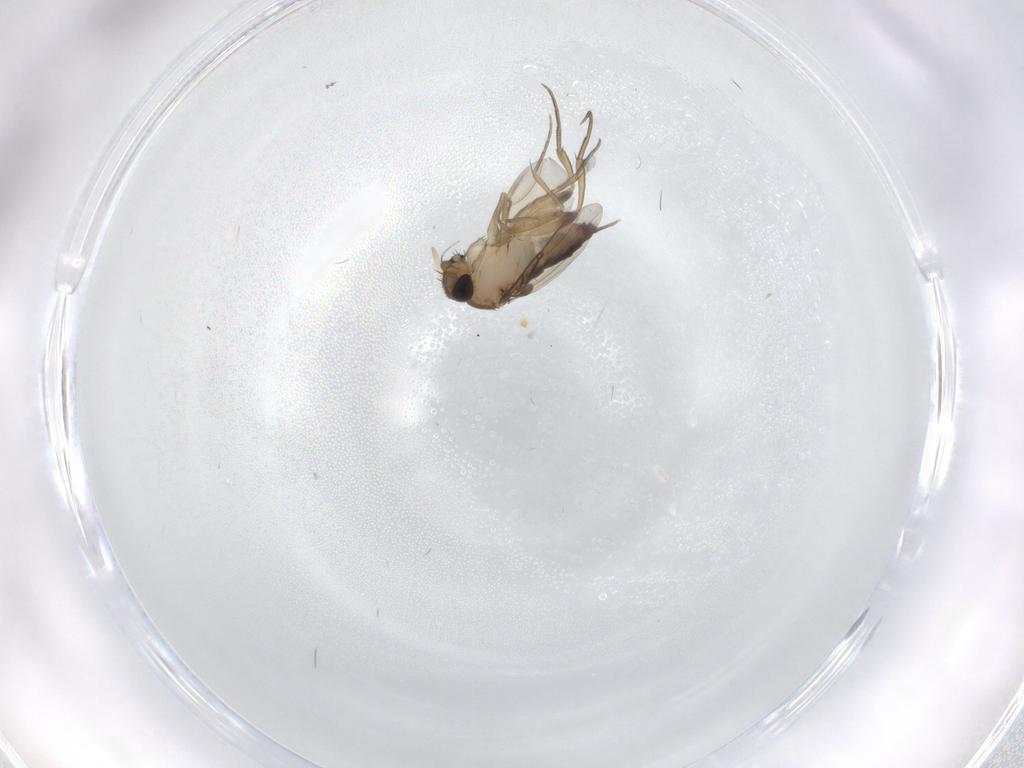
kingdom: Animalia
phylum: Arthropoda
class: Insecta
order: Diptera
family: Phoridae
